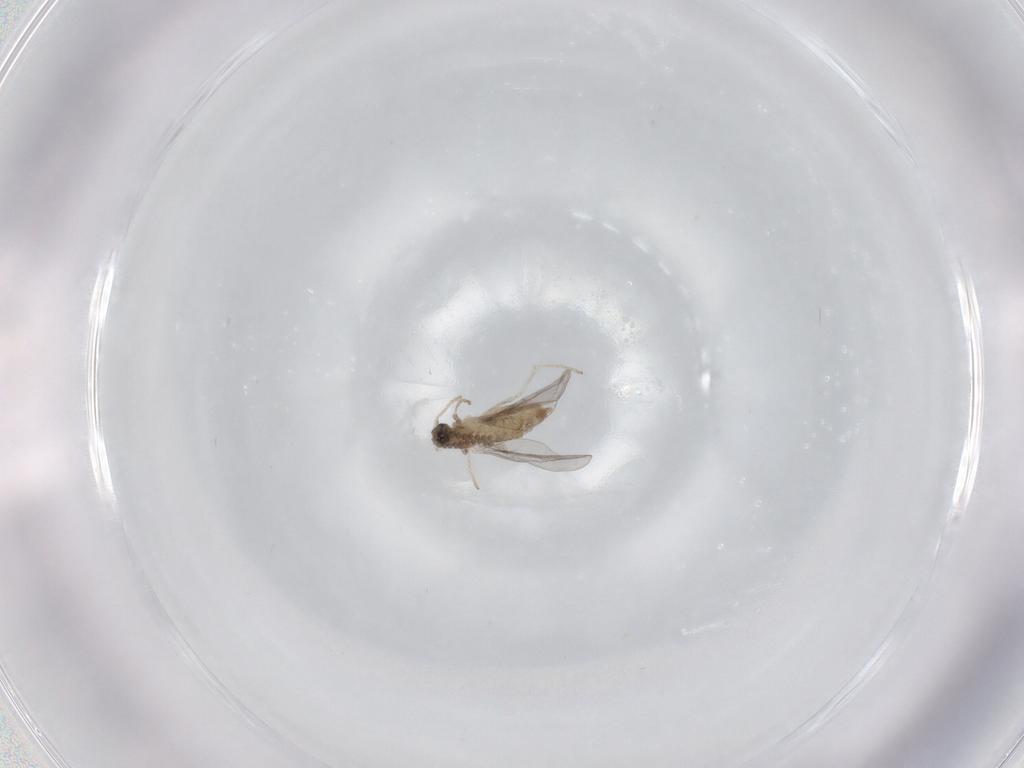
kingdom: Animalia
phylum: Arthropoda
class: Insecta
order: Diptera
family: Cecidomyiidae
